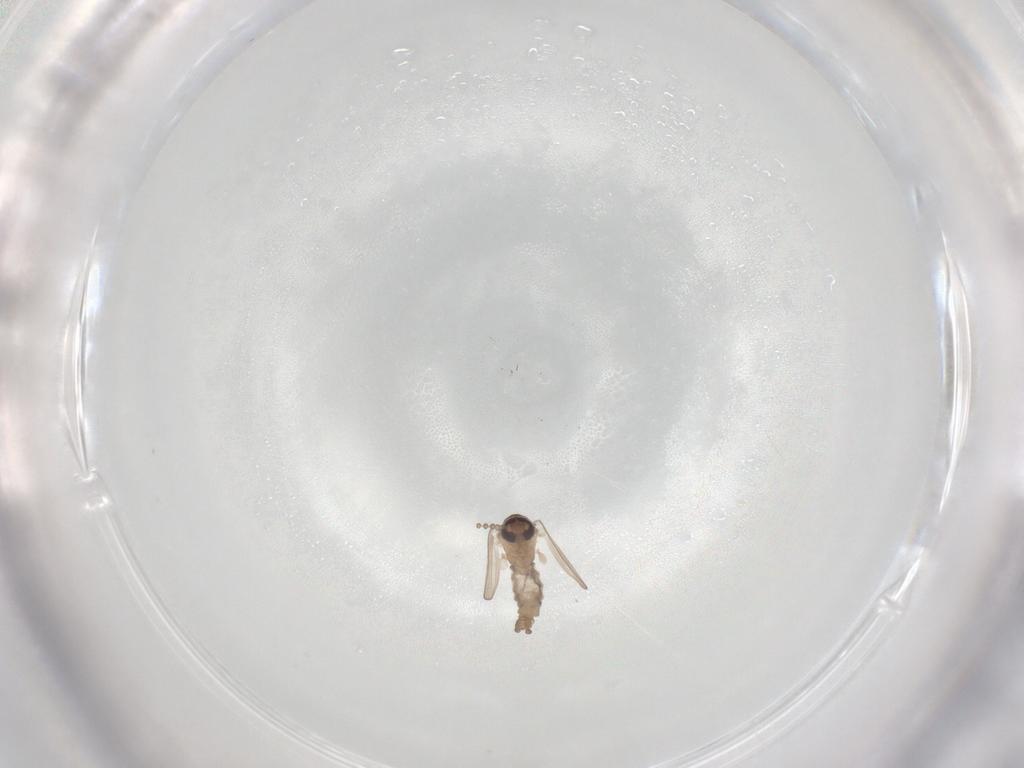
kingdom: Animalia
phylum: Arthropoda
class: Insecta
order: Diptera
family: Psychodidae
